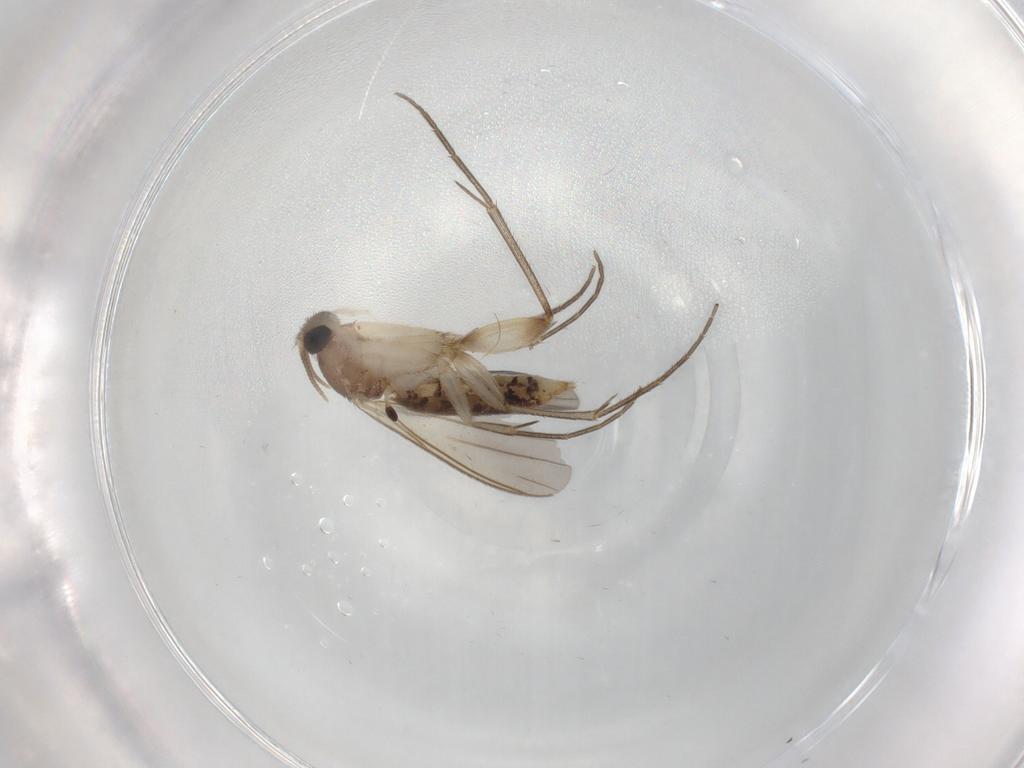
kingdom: Animalia
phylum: Arthropoda
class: Insecta
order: Diptera
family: Mycetophilidae
